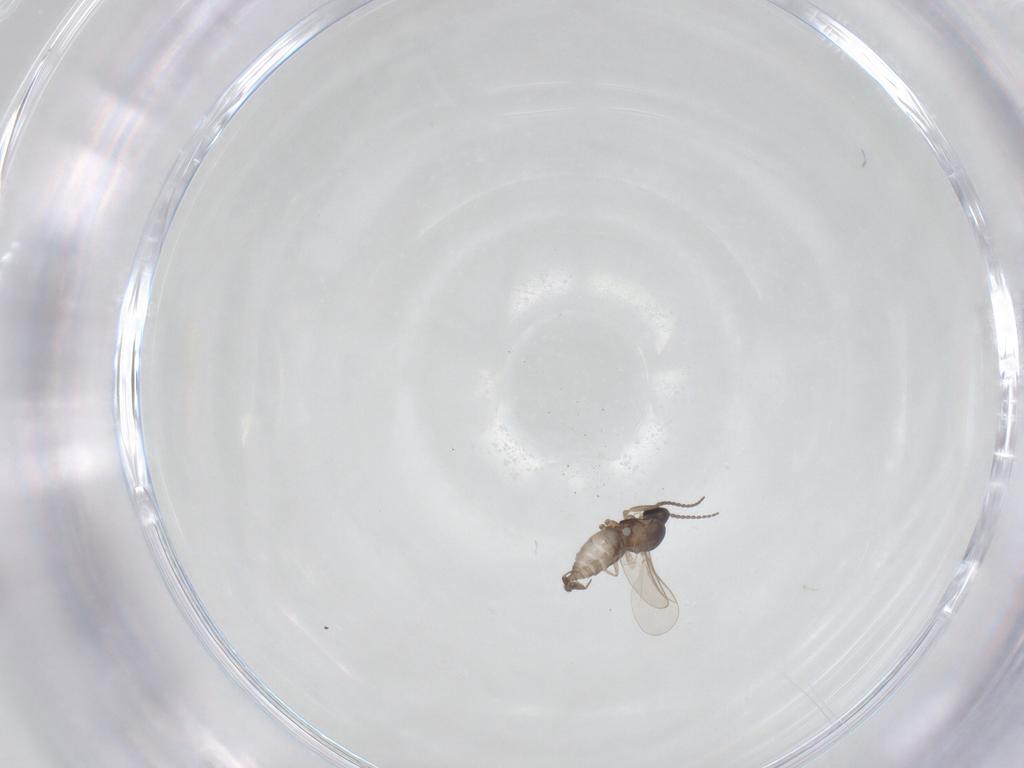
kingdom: Animalia
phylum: Arthropoda
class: Insecta
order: Diptera
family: Cecidomyiidae
